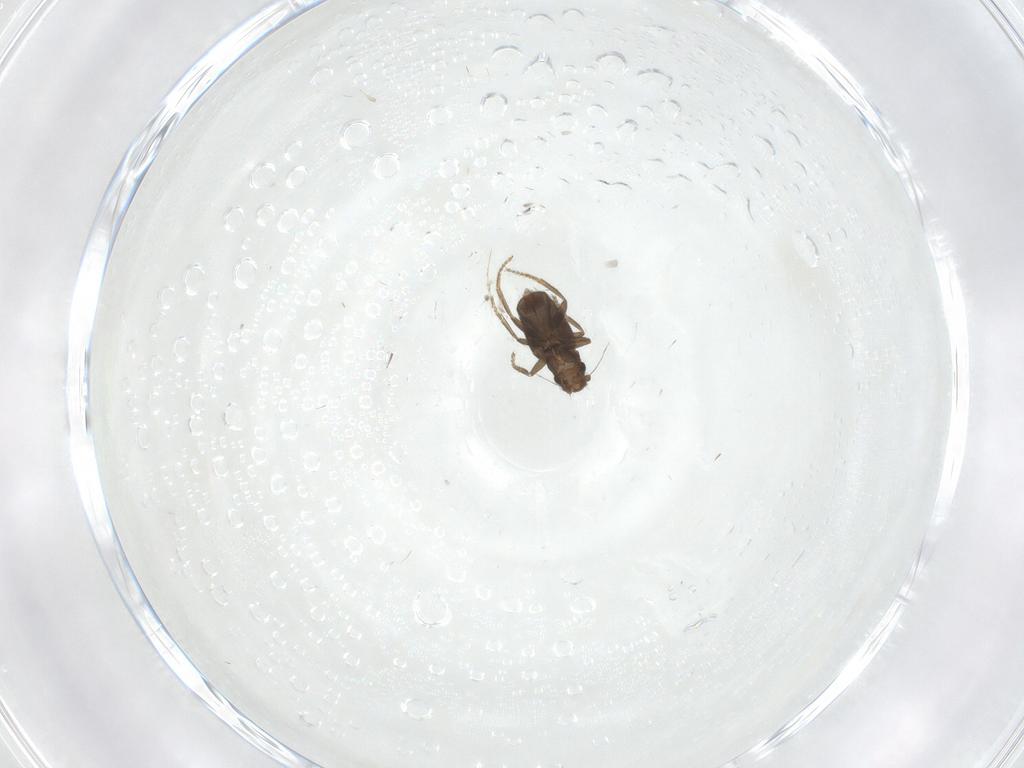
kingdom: Animalia
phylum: Arthropoda
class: Insecta
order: Diptera
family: Phoridae
